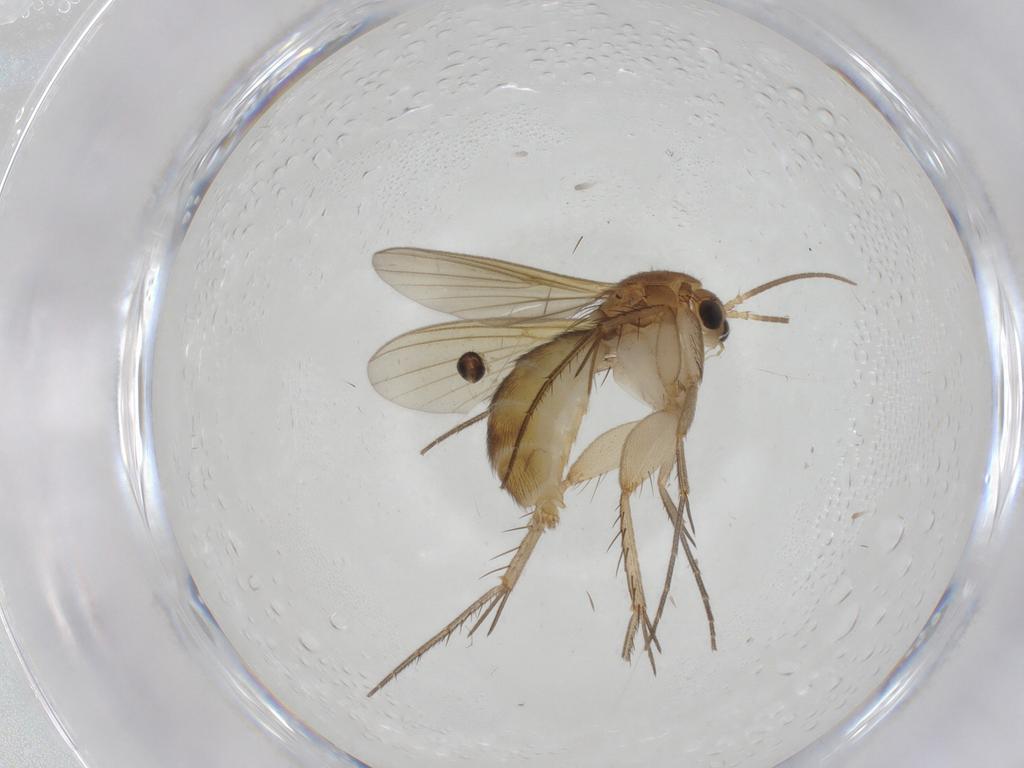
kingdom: Animalia
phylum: Arthropoda
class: Insecta
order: Diptera
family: Mycetophilidae
